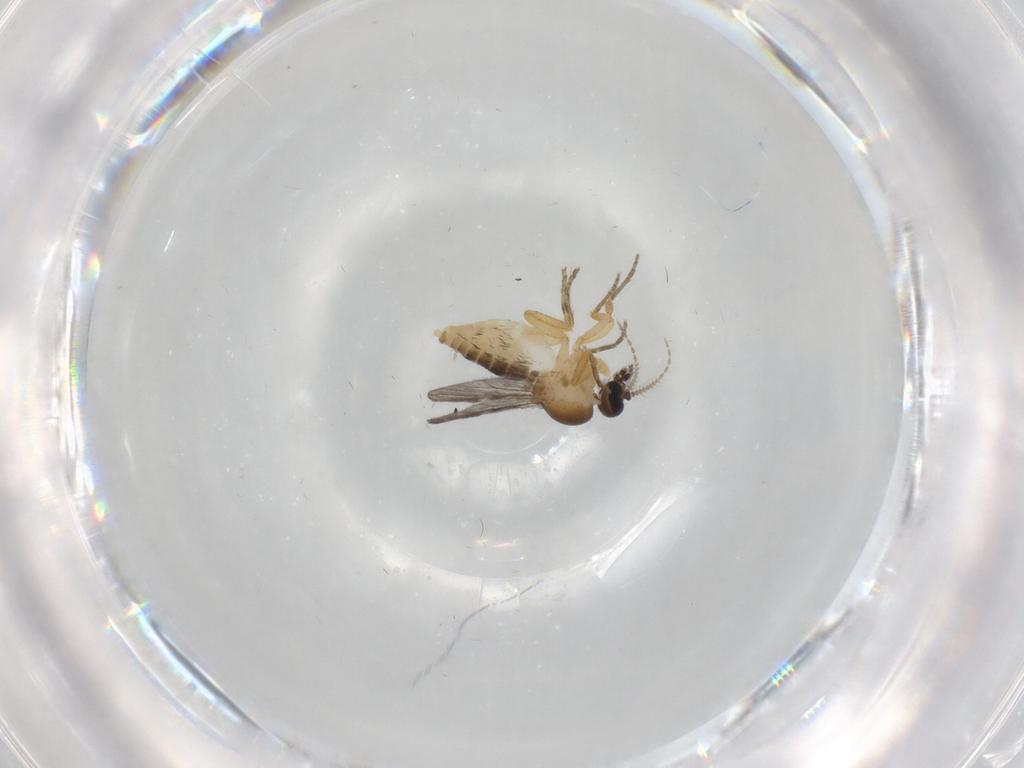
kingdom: Animalia
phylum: Arthropoda
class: Insecta
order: Diptera
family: Ceratopogonidae
